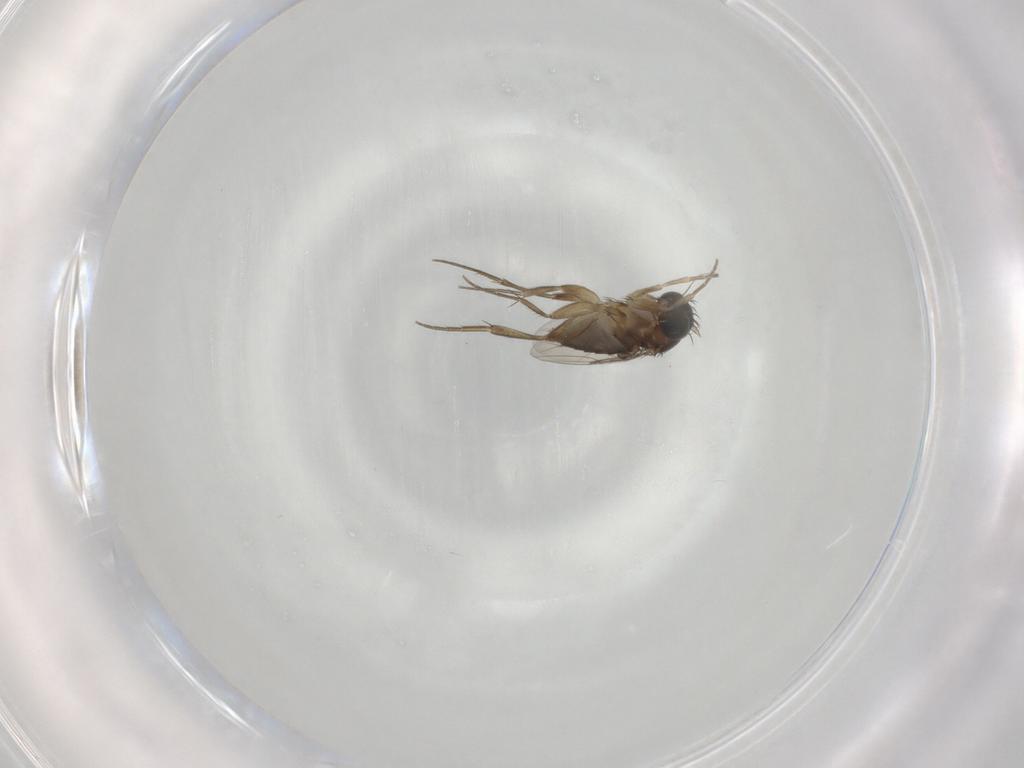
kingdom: Animalia
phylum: Arthropoda
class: Insecta
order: Diptera
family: Phoridae
